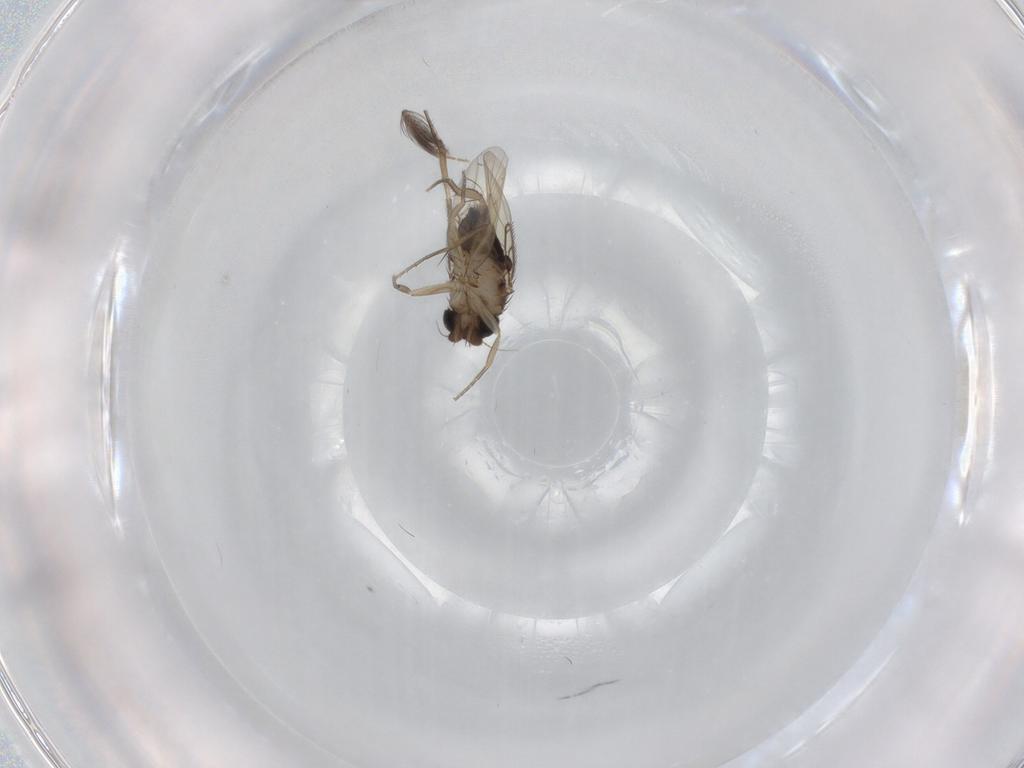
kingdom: Animalia
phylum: Arthropoda
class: Insecta
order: Diptera
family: Phoridae
